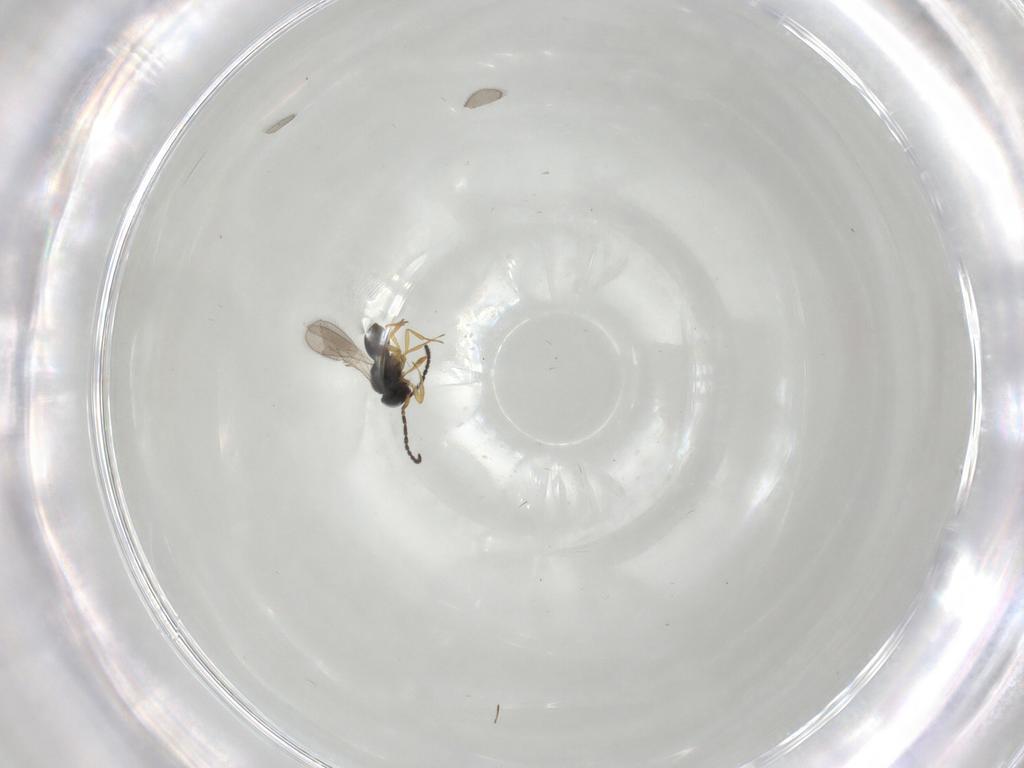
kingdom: Animalia
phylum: Arthropoda
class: Insecta
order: Hymenoptera
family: Scelionidae
